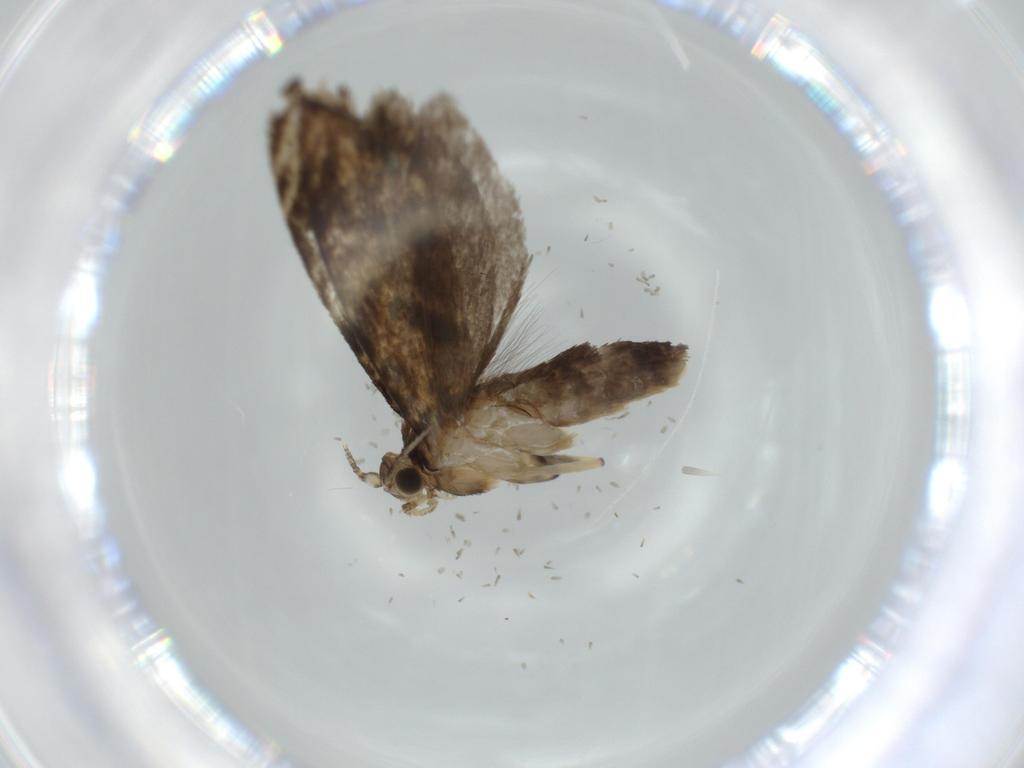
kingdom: Animalia
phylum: Arthropoda
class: Insecta
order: Lepidoptera
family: Tineidae
